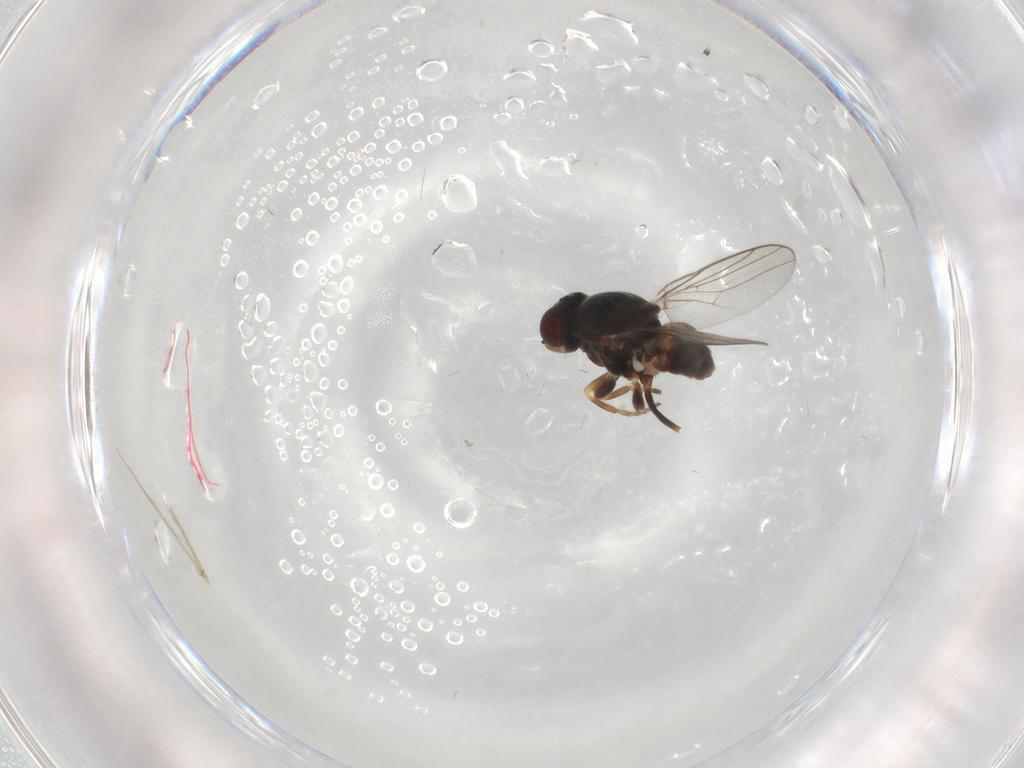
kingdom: Animalia
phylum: Arthropoda
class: Insecta
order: Diptera
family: Chloropidae
